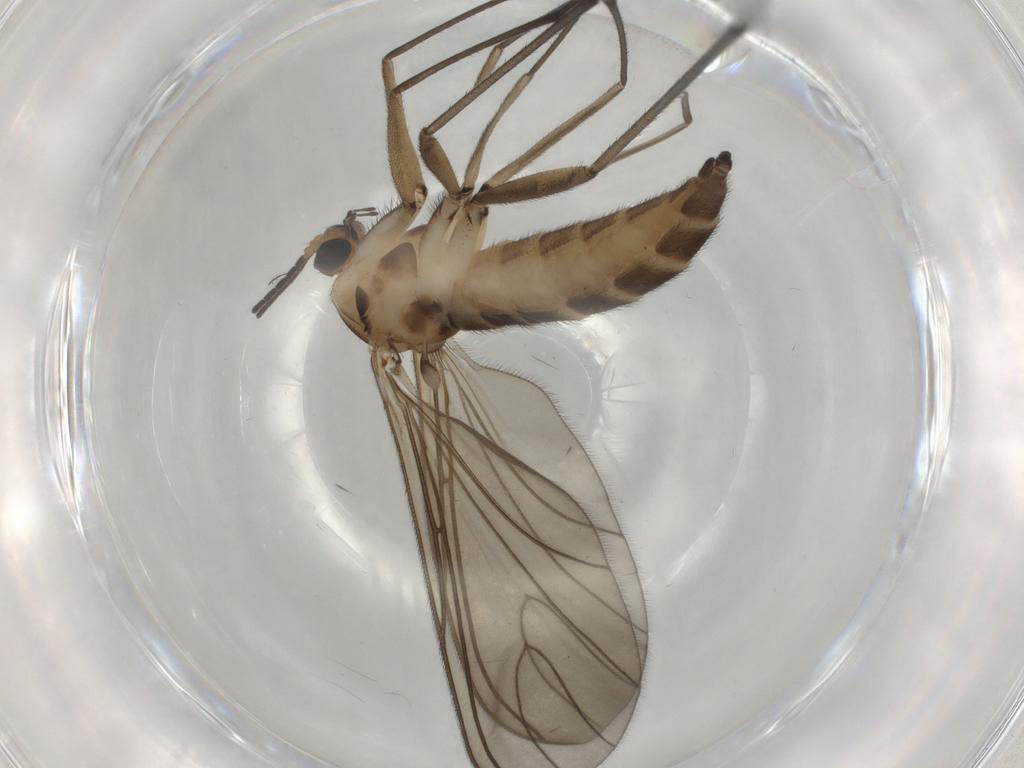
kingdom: Animalia
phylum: Arthropoda
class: Insecta
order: Diptera
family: Sciaridae
